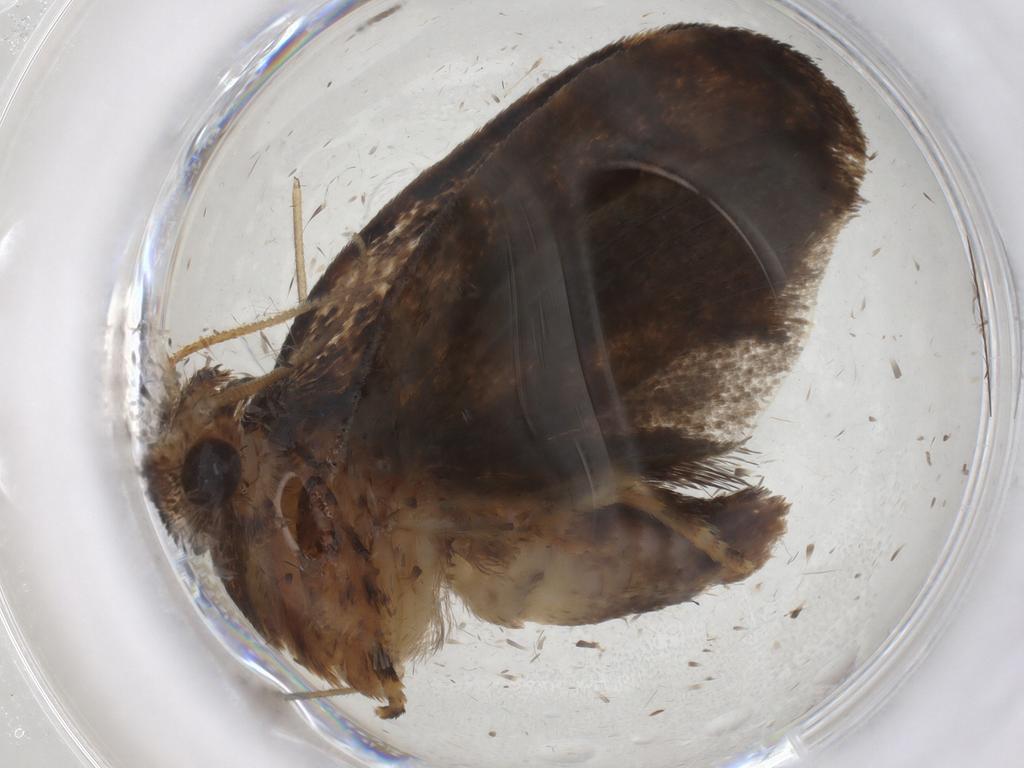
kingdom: Animalia
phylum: Arthropoda
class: Insecta
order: Lepidoptera
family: Tineidae
